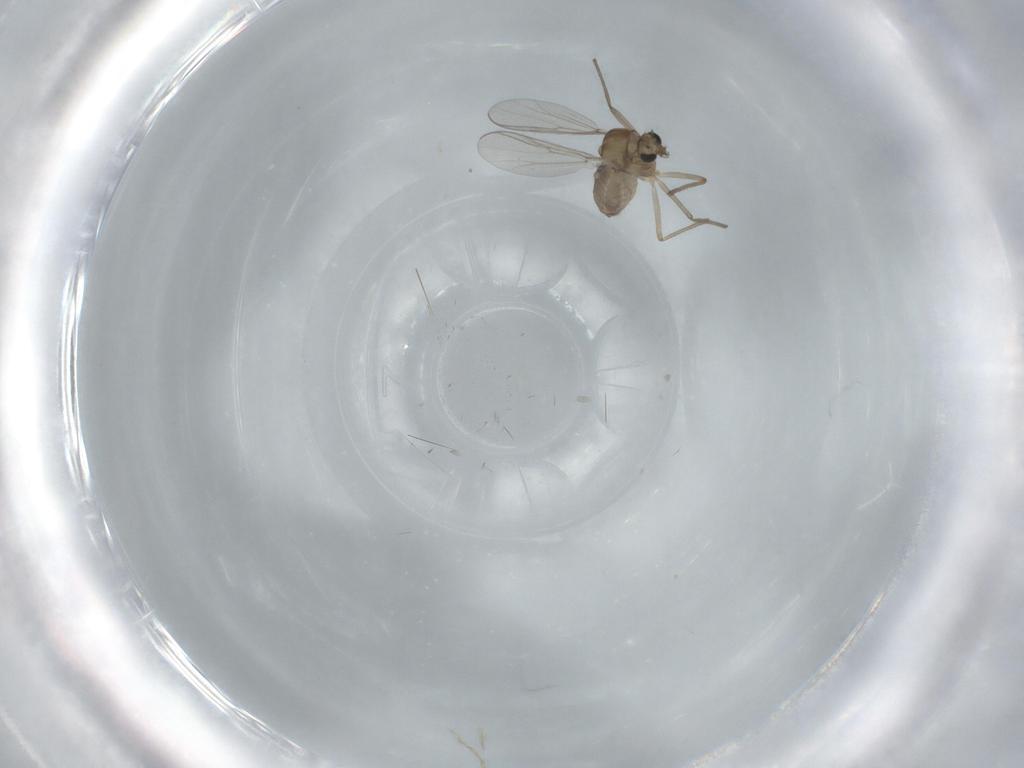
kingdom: Animalia
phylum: Arthropoda
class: Insecta
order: Diptera
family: Chironomidae
